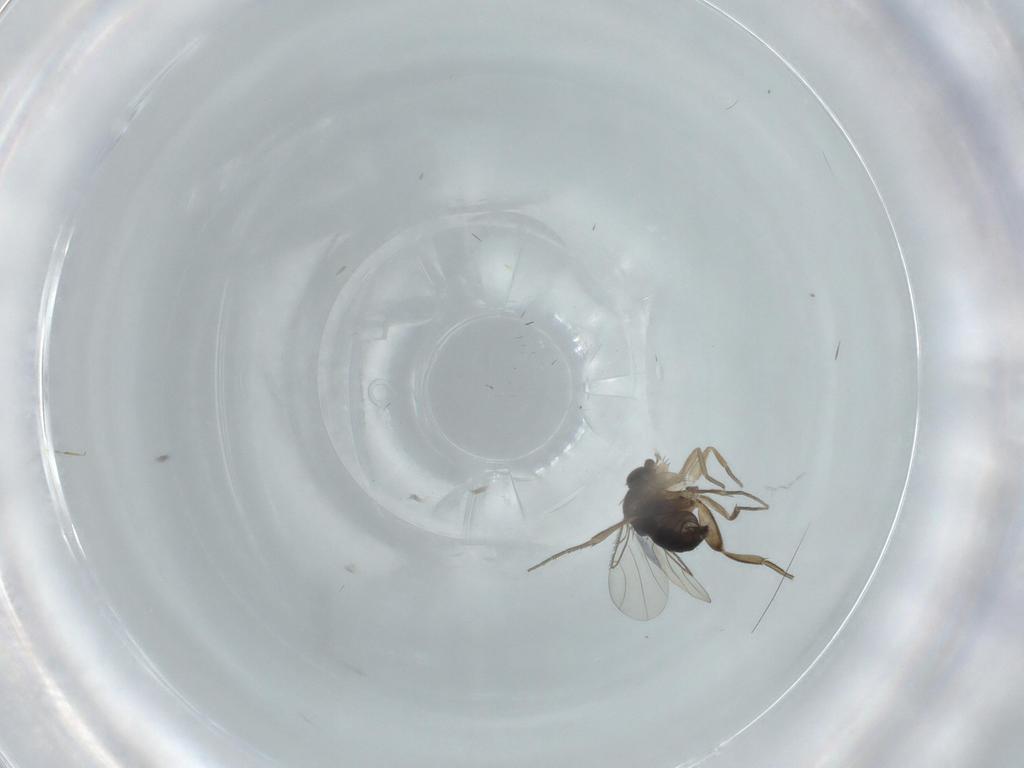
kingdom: Animalia
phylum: Arthropoda
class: Insecta
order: Diptera
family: Phoridae
